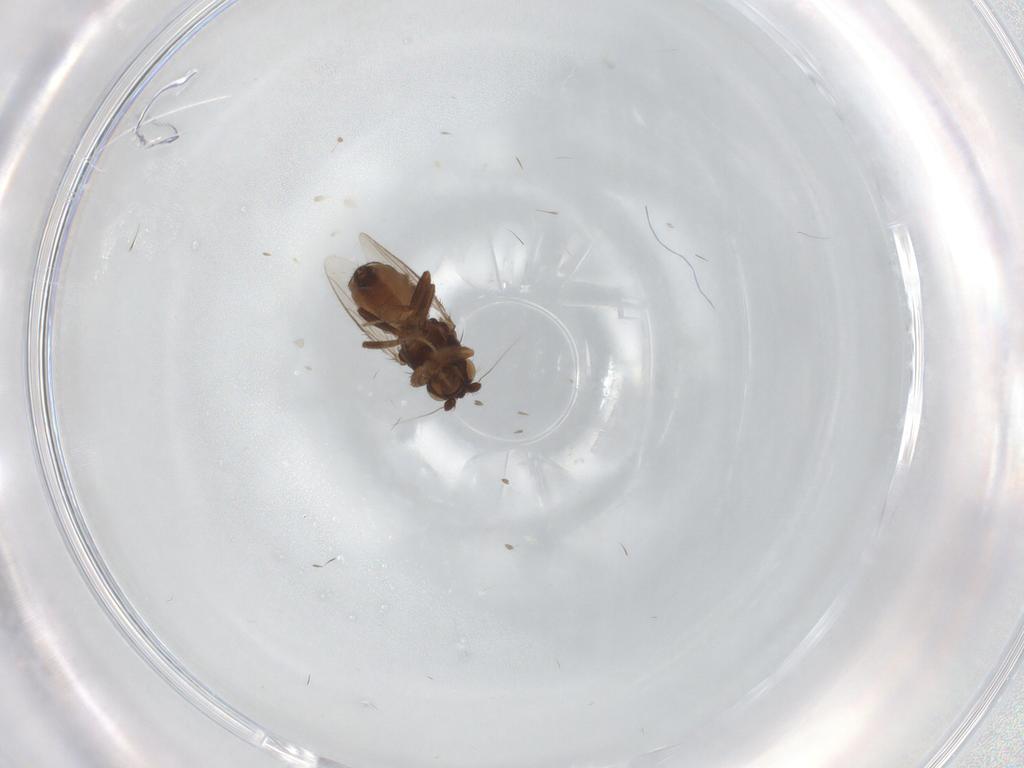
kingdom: Animalia
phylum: Arthropoda
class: Insecta
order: Diptera
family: Sphaeroceridae
